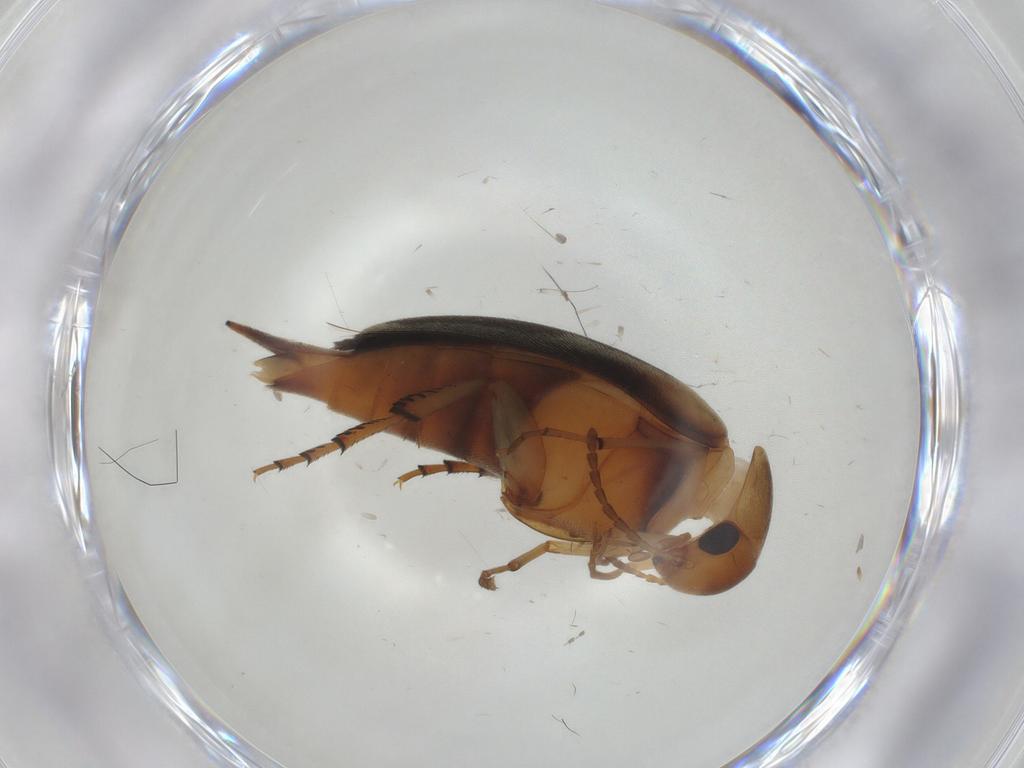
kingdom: Animalia
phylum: Arthropoda
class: Insecta
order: Coleoptera
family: Mordellidae
